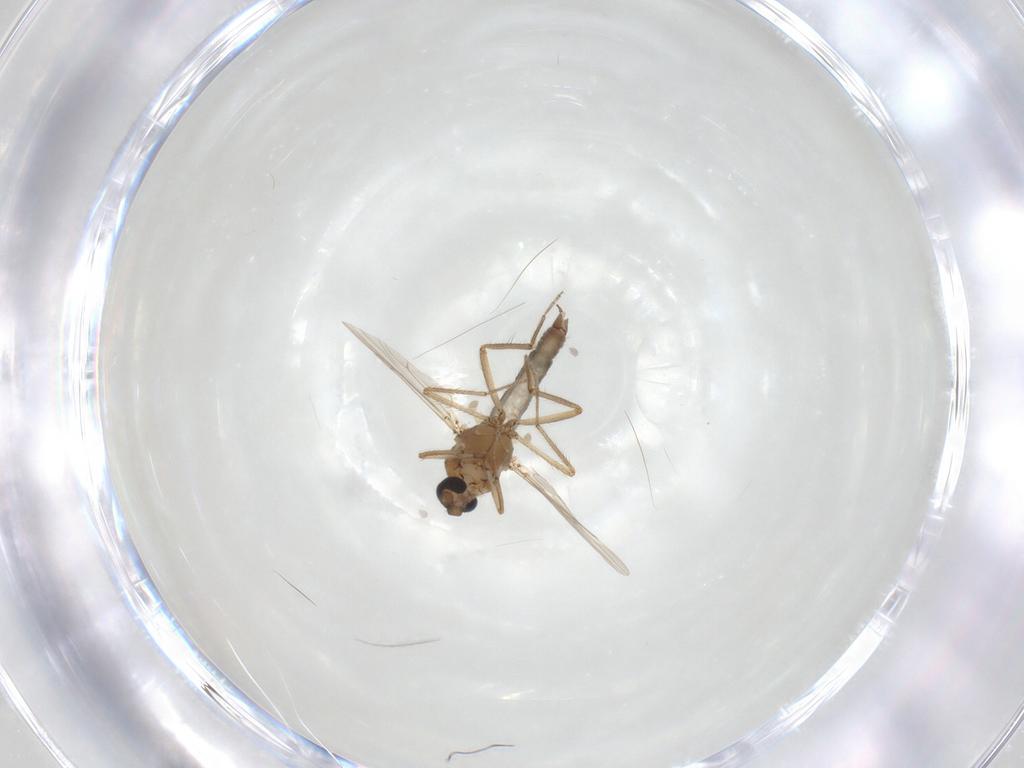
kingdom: Animalia
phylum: Arthropoda
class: Insecta
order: Diptera
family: Ceratopogonidae
